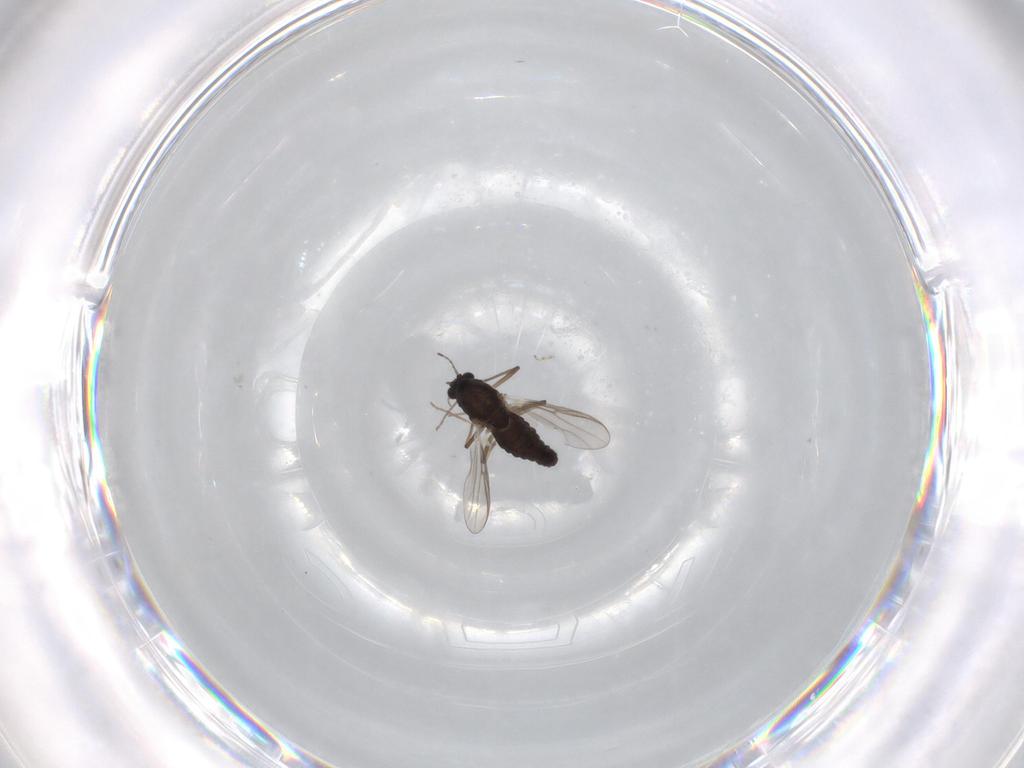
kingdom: Animalia
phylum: Arthropoda
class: Insecta
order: Diptera
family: Chironomidae
